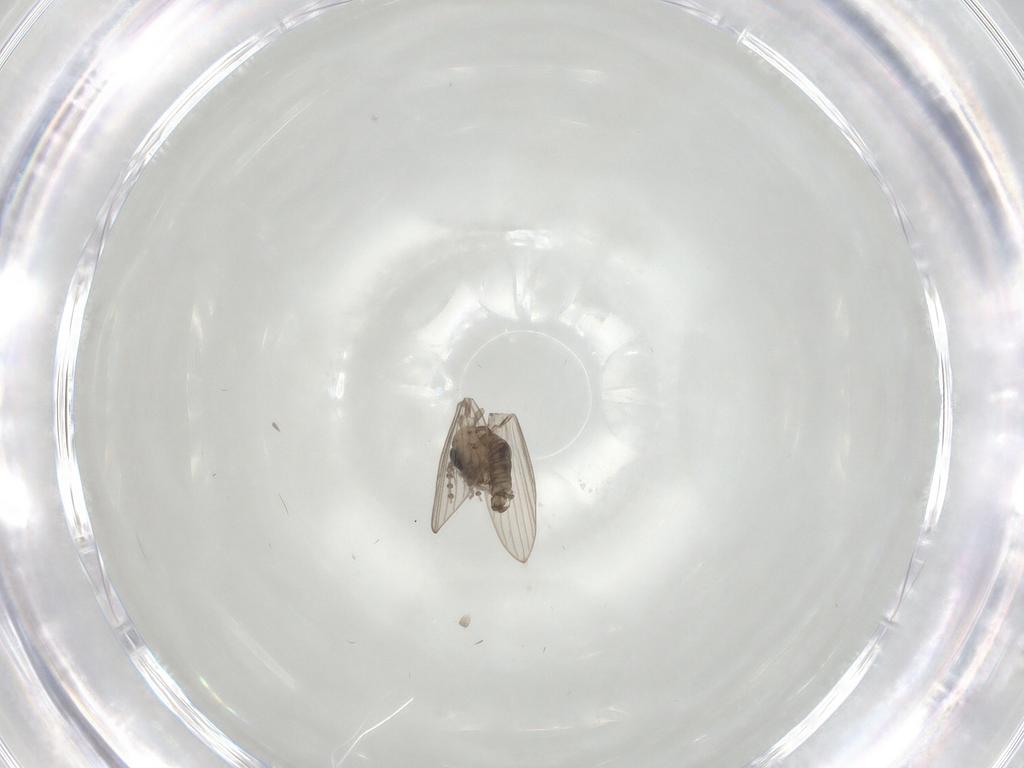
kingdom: Animalia
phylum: Arthropoda
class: Insecta
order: Diptera
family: Psychodidae
